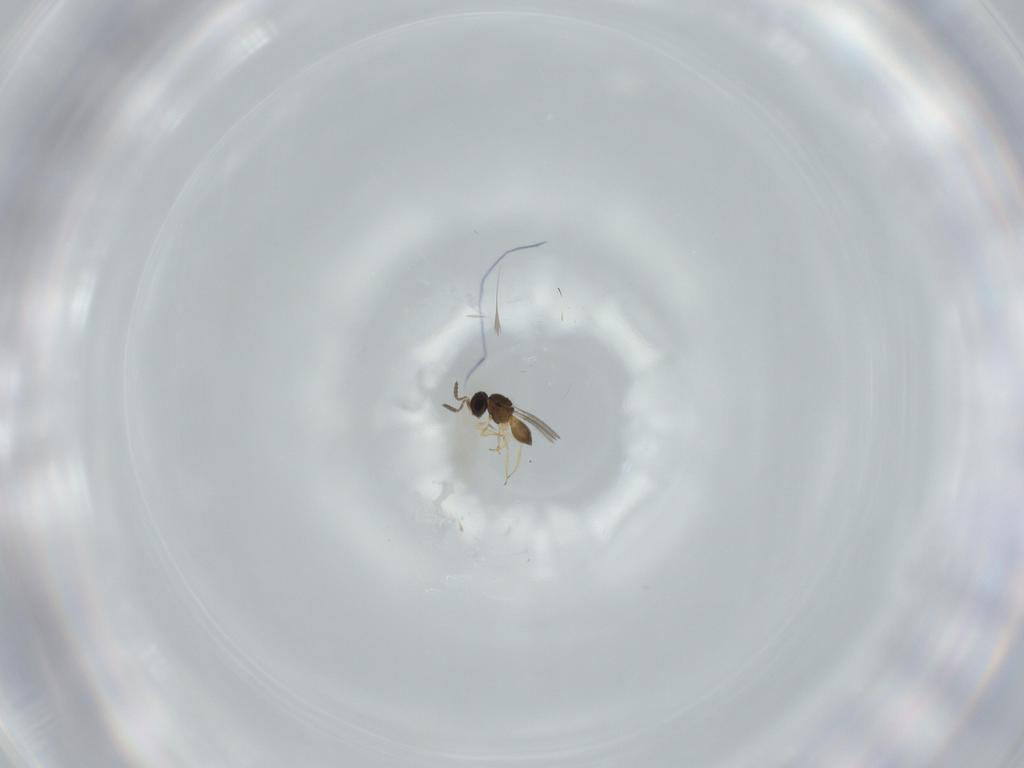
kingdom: Animalia
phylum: Arthropoda
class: Insecta
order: Hymenoptera
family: Scelionidae
